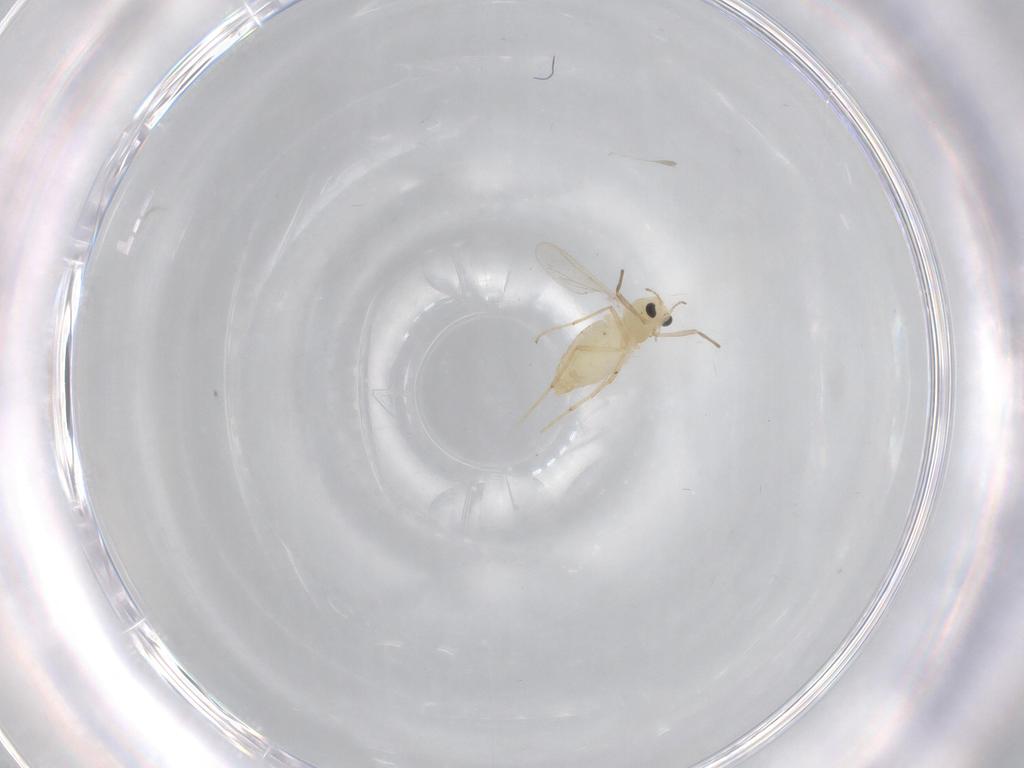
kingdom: Animalia
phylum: Arthropoda
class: Insecta
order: Diptera
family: Chironomidae
